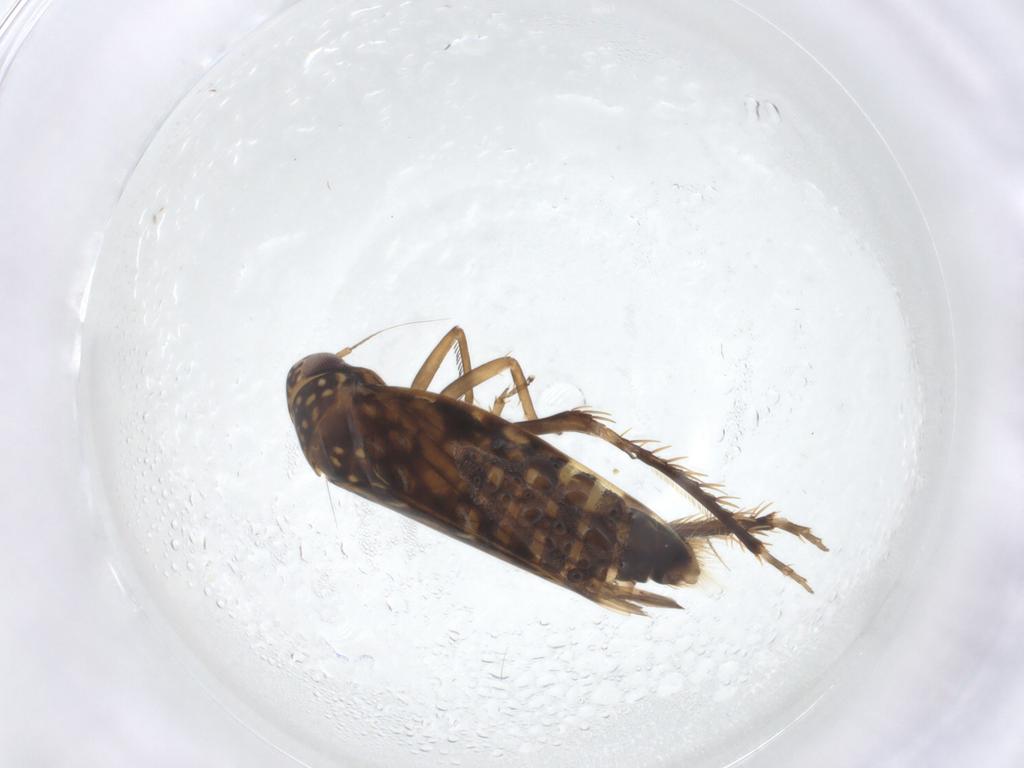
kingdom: Animalia
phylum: Arthropoda
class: Insecta
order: Hemiptera
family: Cicadellidae
